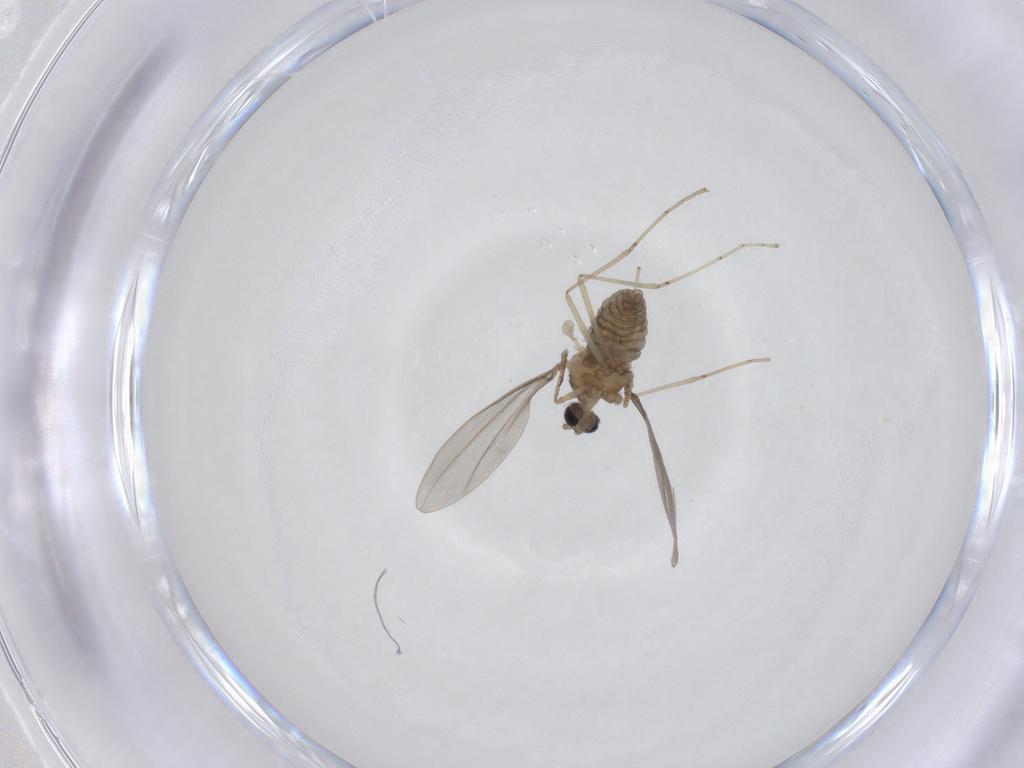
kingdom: Animalia
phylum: Arthropoda
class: Insecta
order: Diptera
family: Cecidomyiidae
